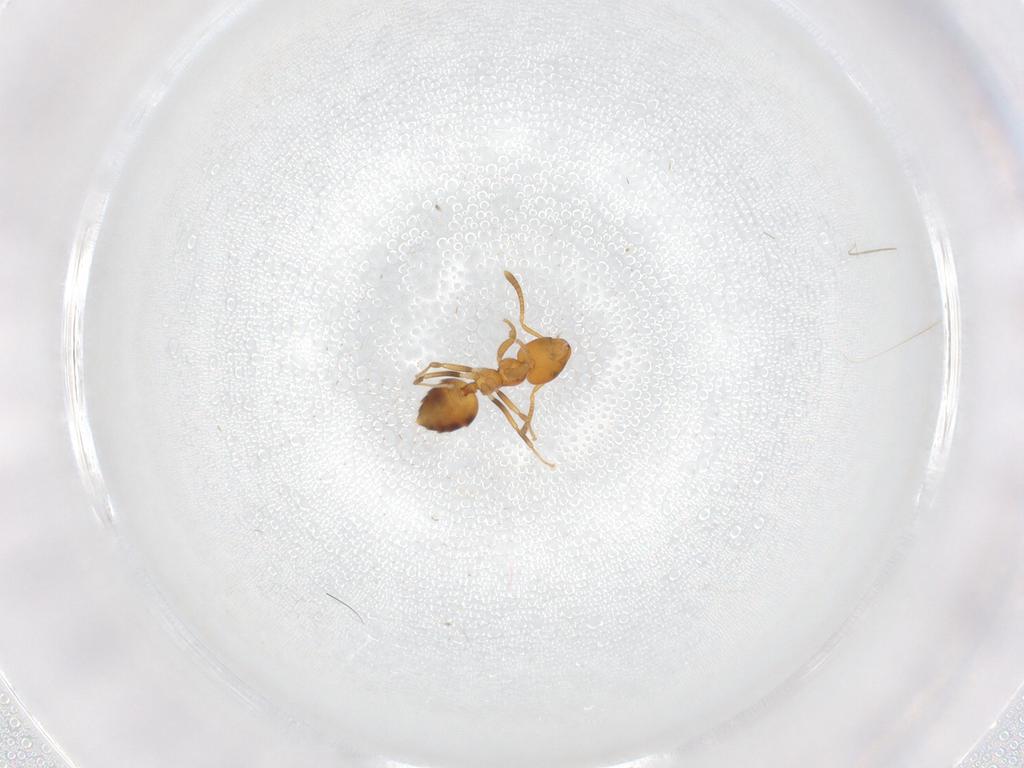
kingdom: Animalia
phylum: Arthropoda
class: Insecta
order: Hymenoptera
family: Formicidae
